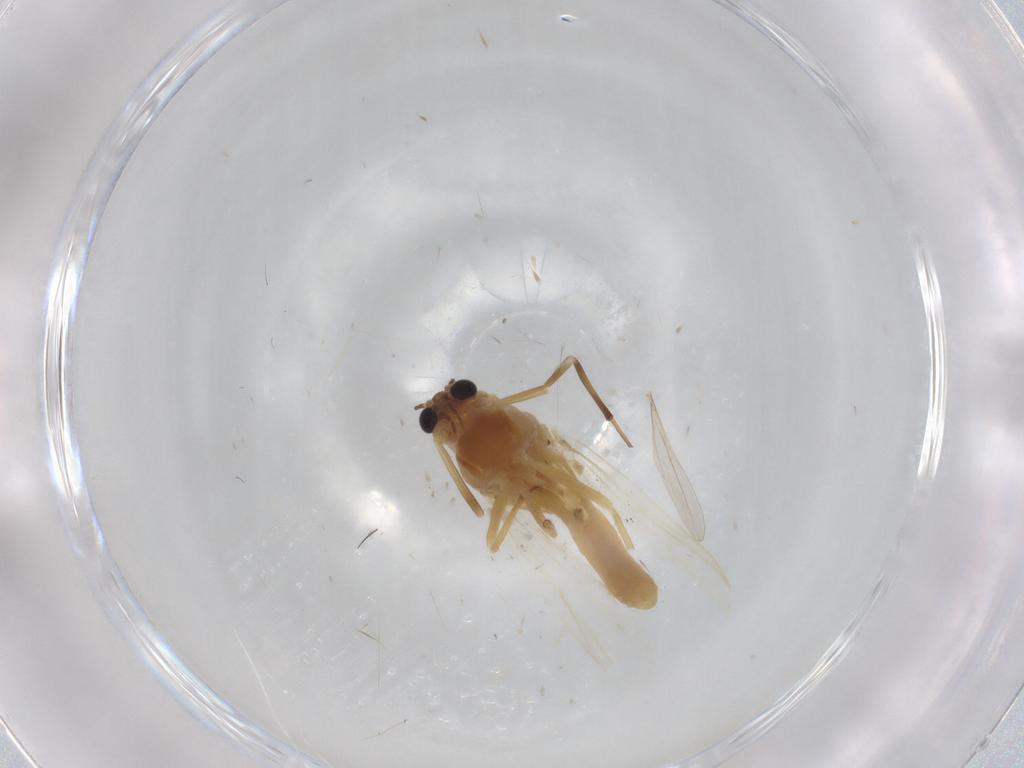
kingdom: Animalia
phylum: Arthropoda
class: Insecta
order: Diptera
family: Chironomidae
